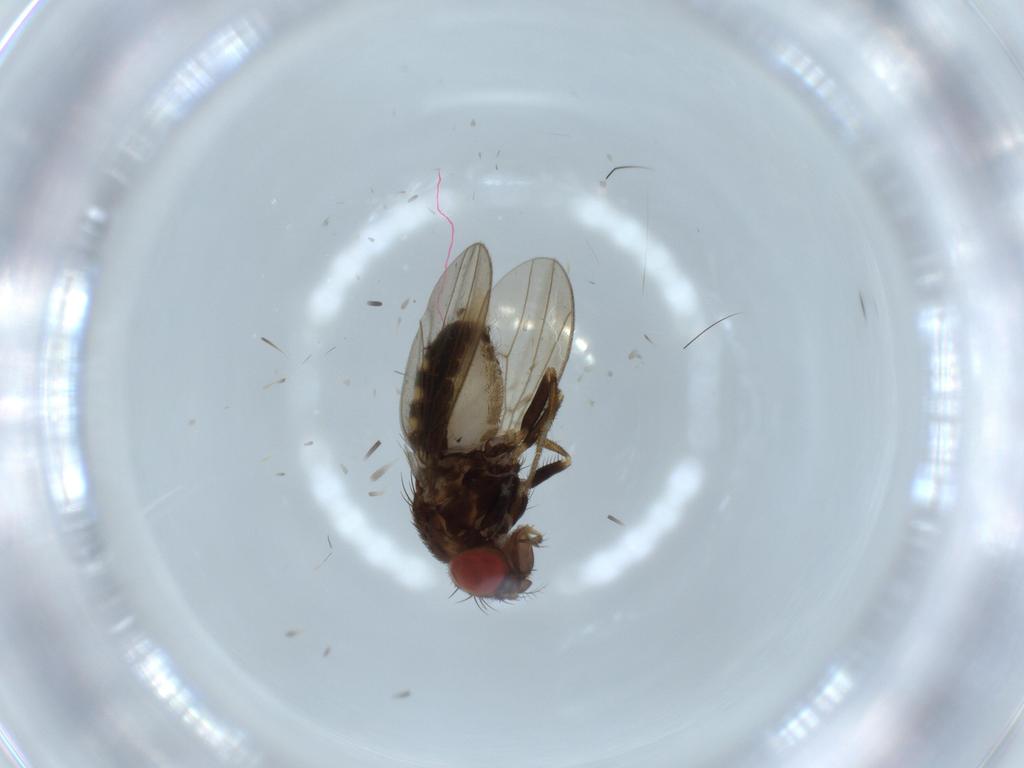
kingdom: Animalia
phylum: Arthropoda
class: Insecta
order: Diptera
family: Drosophilidae
